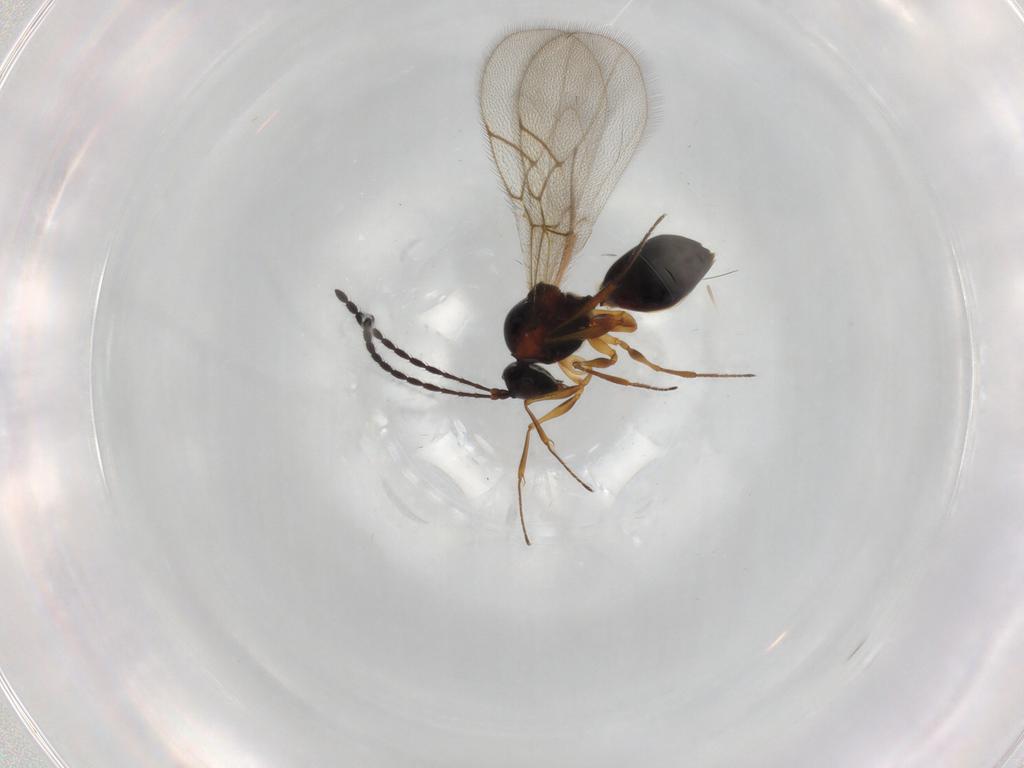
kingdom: Animalia
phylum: Arthropoda
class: Insecta
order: Hymenoptera
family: Figitidae
